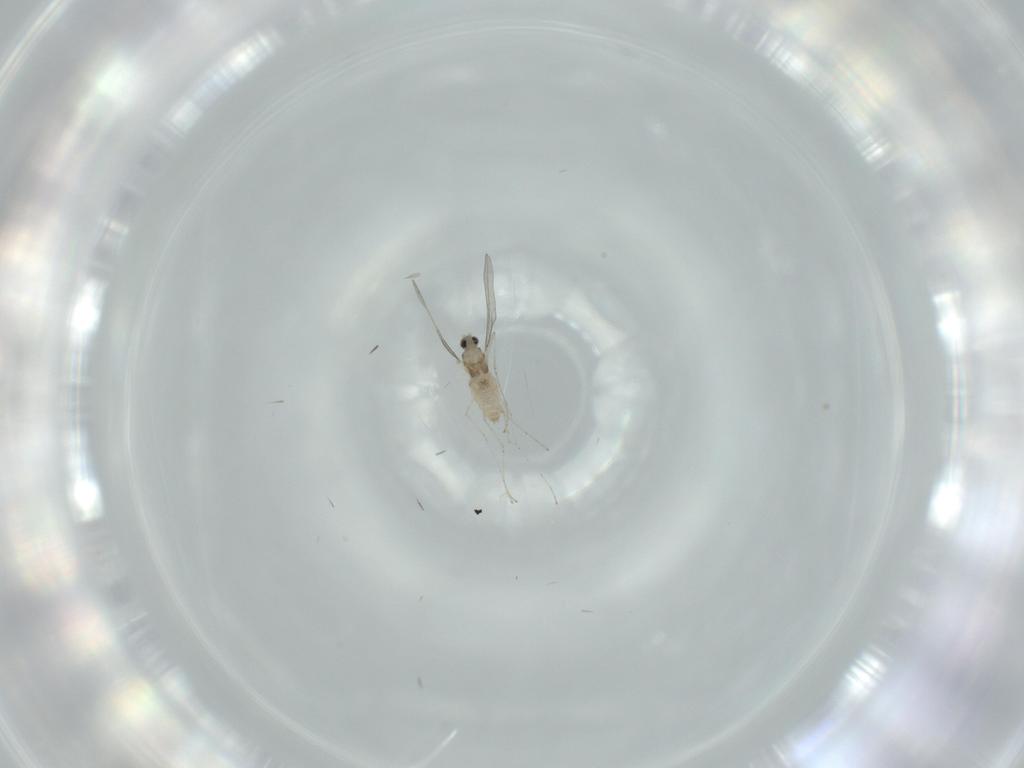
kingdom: Animalia
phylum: Arthropoda
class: Insecta
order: Diptera
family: Cecidomyiidae
